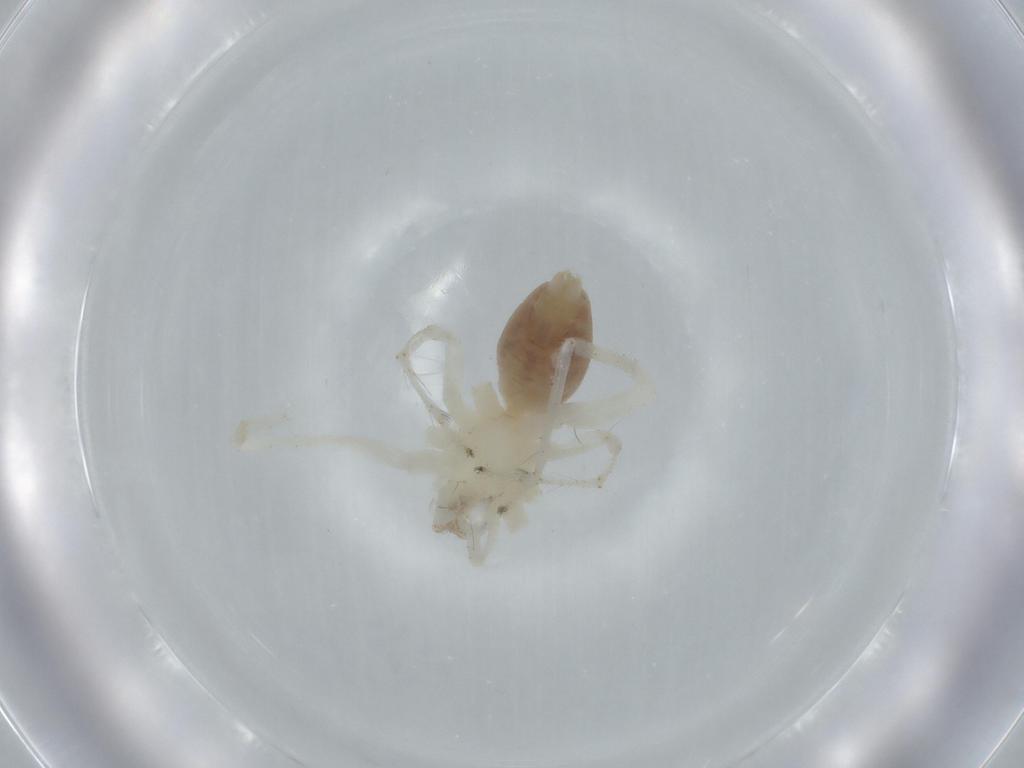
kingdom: Animalia
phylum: Arthropoda
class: Arachnida
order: Araneae
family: Anyphaenidae
